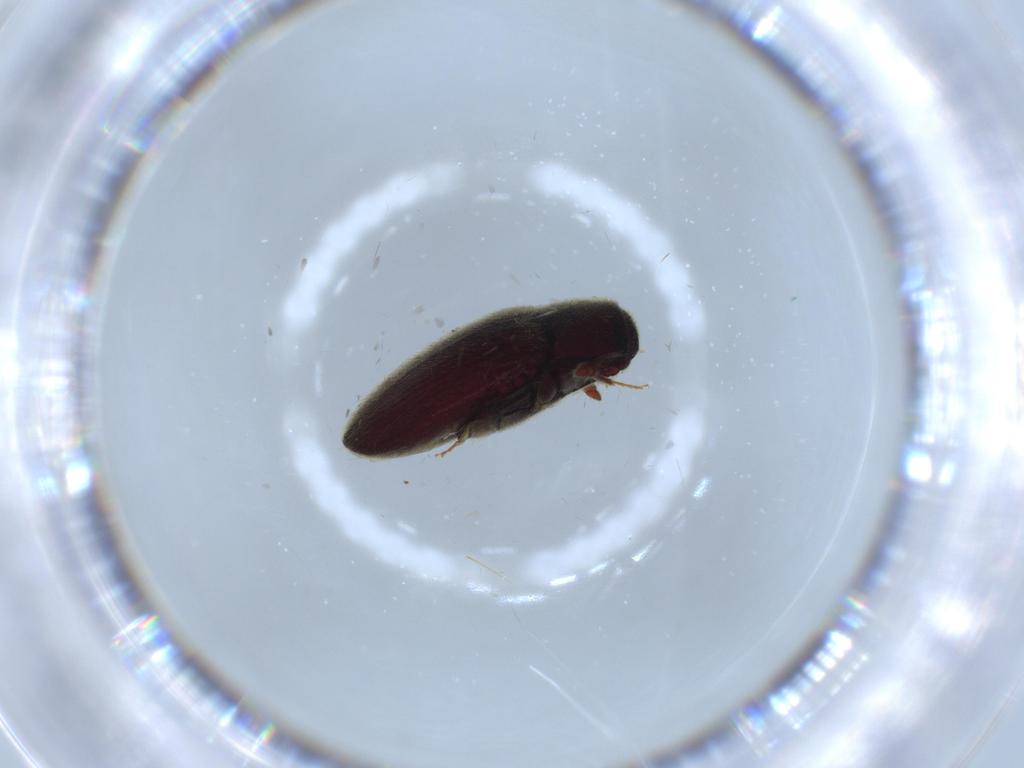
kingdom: Animalia
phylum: Arthropoda
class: Insecta
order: Coleoptera
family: Throscidae
